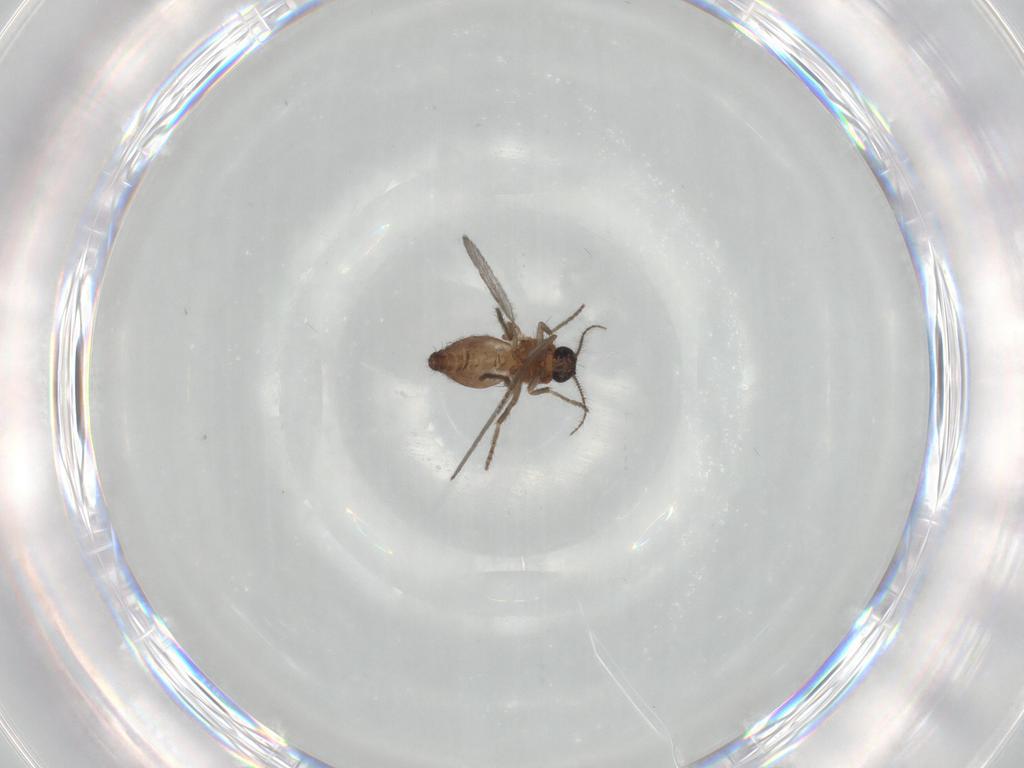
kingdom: Animalia
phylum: Arthropoda
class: Insecta
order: Diptera
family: Ceratopogonidae
